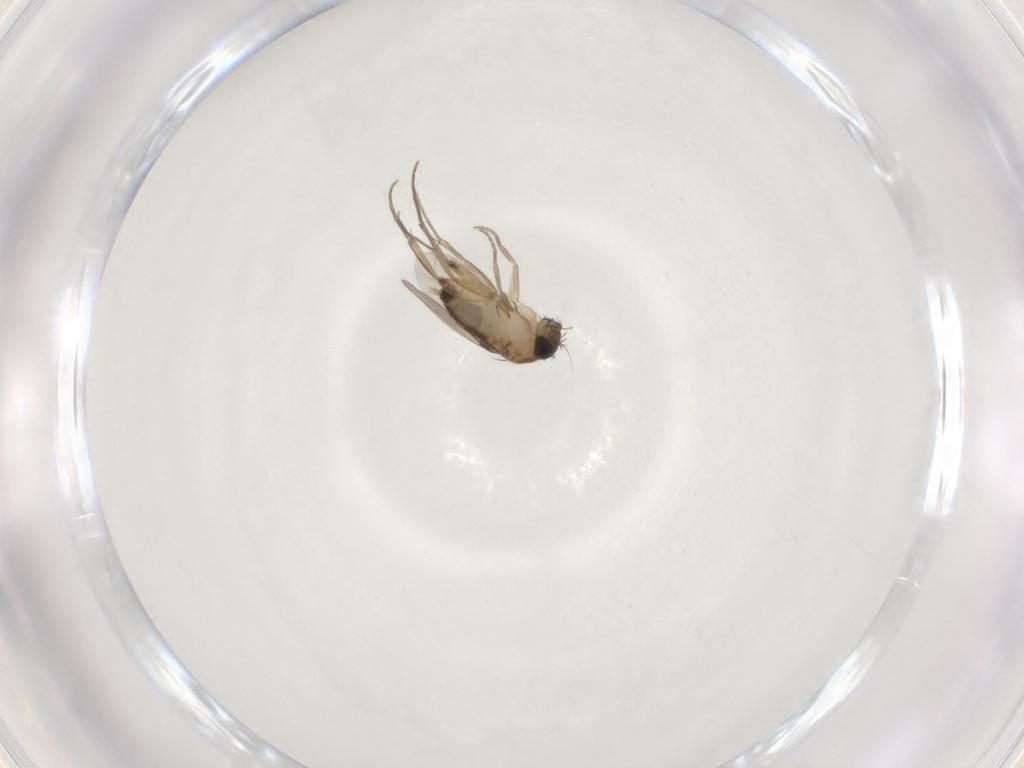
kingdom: Animalia
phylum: Arthropoda
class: Insecta
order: Diptera
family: Phoridae
